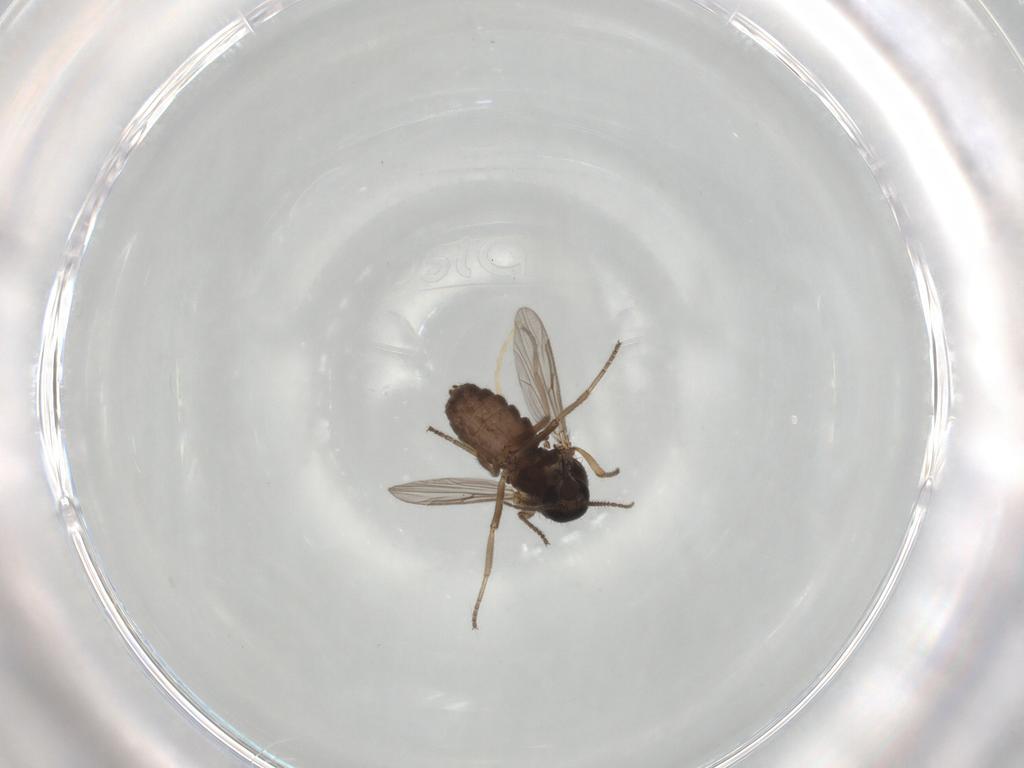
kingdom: Animalia
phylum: Arthropoda
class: Insecta
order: Diptera
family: Ceratopogonidae
